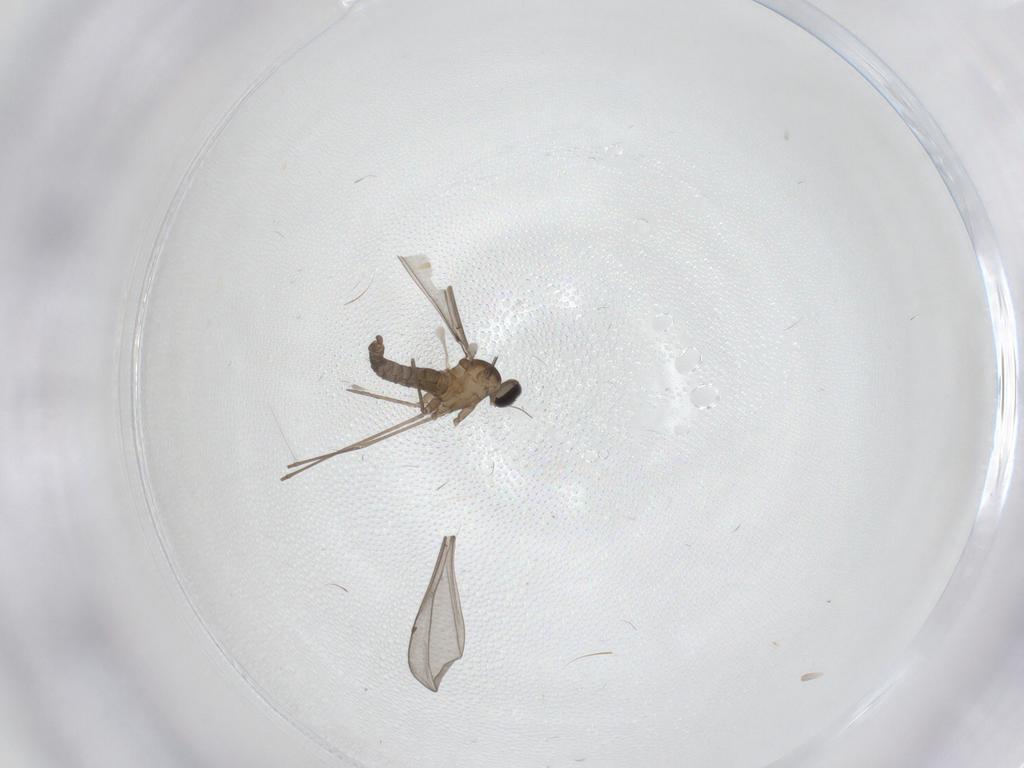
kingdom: Animalia
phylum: Arthropoda
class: Insecta
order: Diptera
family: Cecidomyiidae
